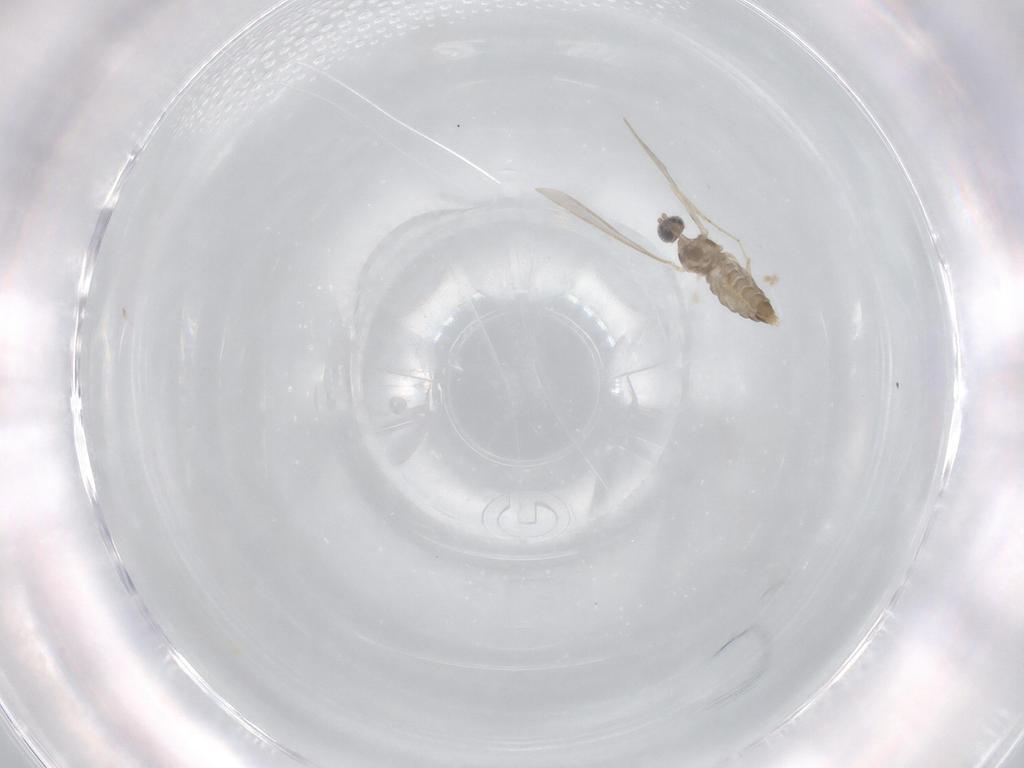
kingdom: Animalia
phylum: Arthropoda
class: Insecta
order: Diptera
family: Cecidomyiidae
